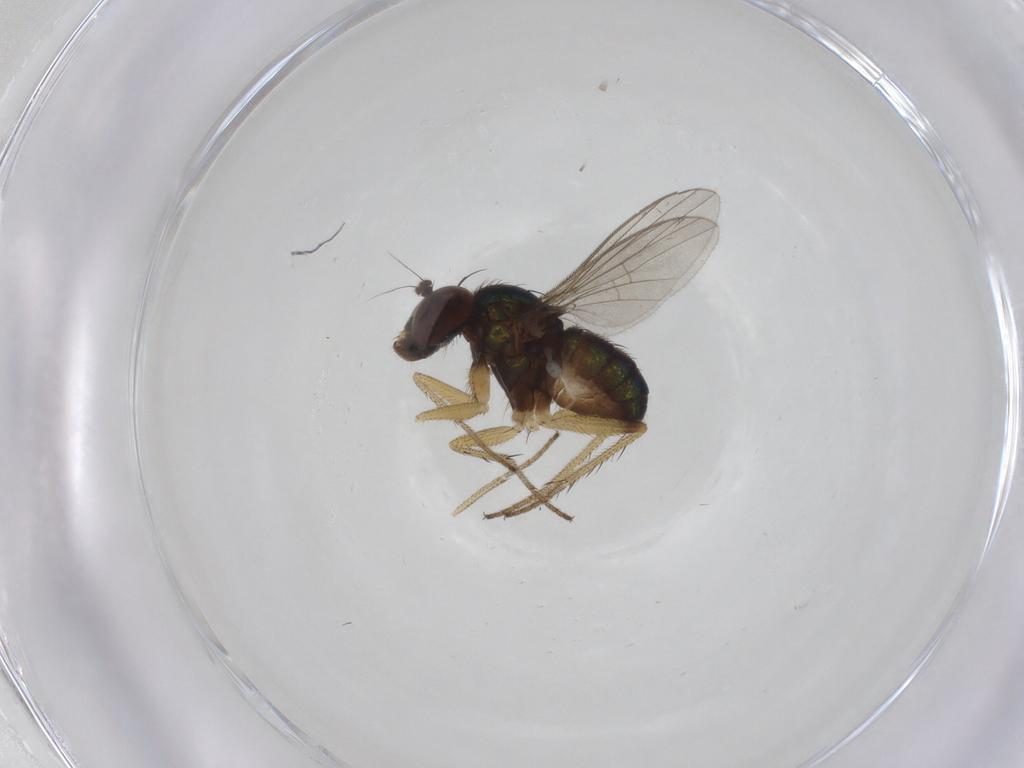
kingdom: Animalia
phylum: Arthropoda
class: Insecta
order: Diptera
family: Cecidomyiidae
